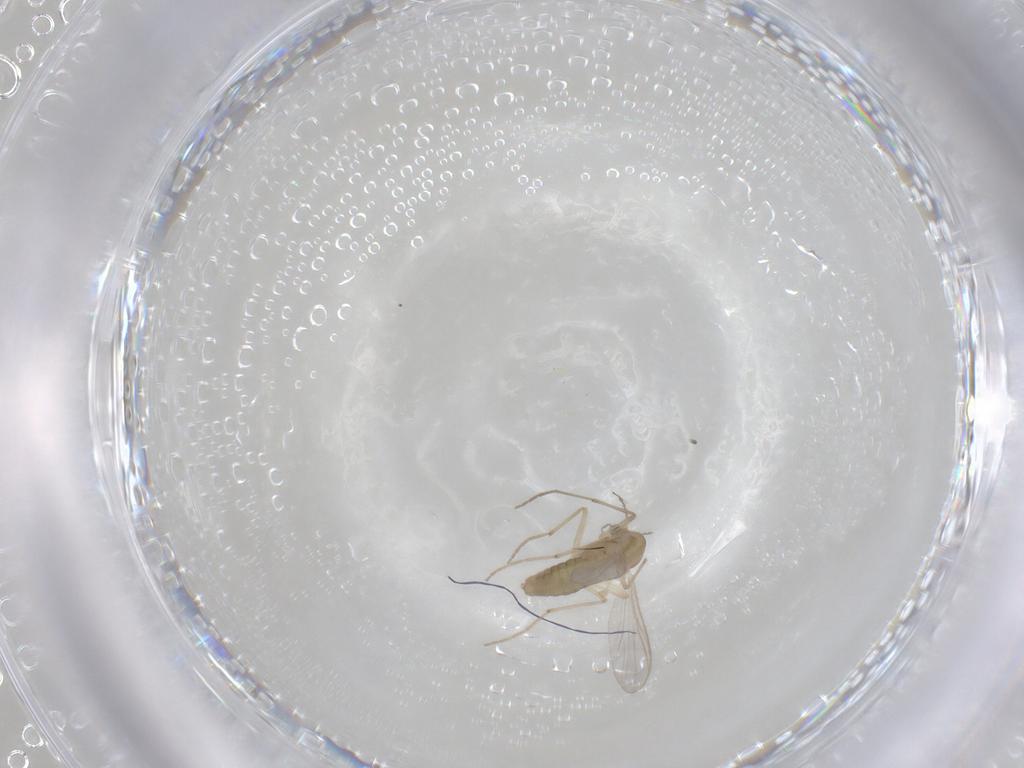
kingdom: Animalia
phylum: Arthropoda
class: Insecta
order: Diptera
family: Chironomidae
